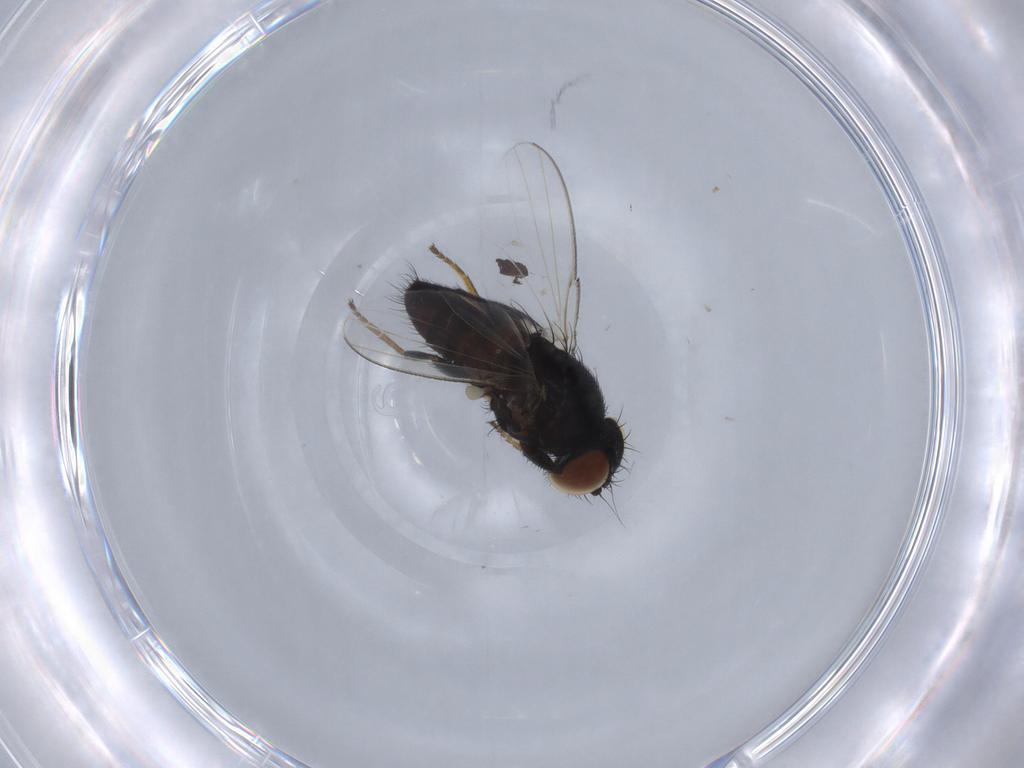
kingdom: Animalia
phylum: Arthropoda
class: Insecta
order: Diptera
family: Milichiidae
